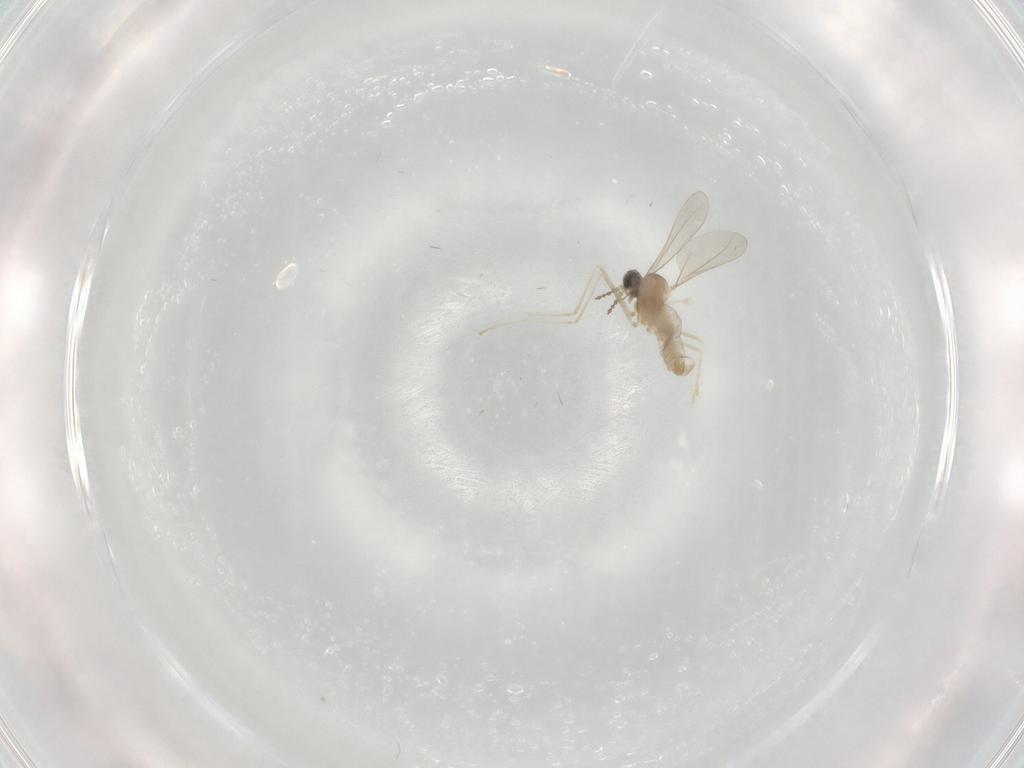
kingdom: Animalia
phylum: Arthropoda
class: Insecta
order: Diptera
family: Cecidomyiidae
